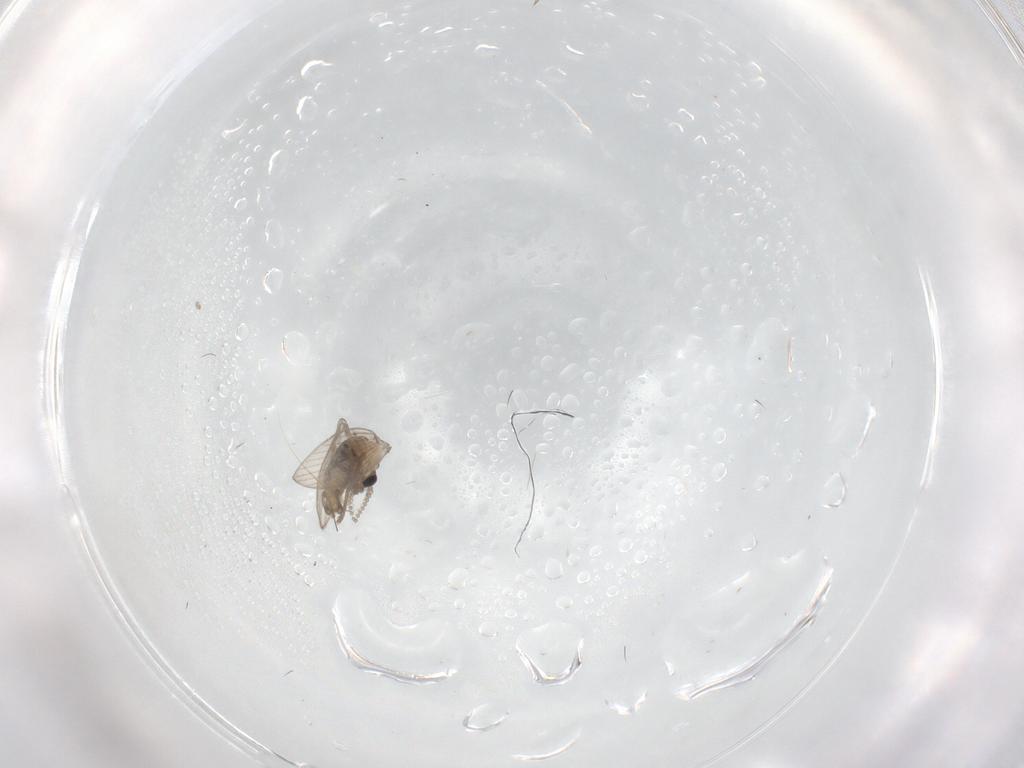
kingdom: Animalia
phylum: Arthropoda
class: Insecta
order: Diptera
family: Psychodidae
